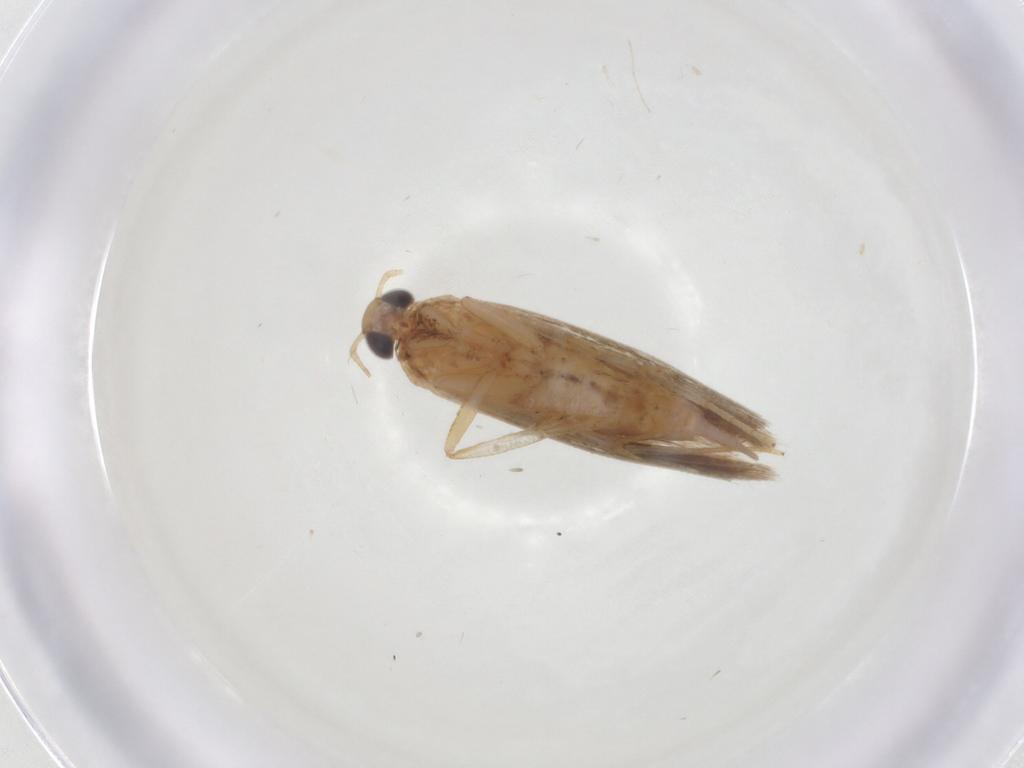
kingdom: Animalia
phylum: Arthropoda
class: Insecta
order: Lepidoptera
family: Gelechiidae
